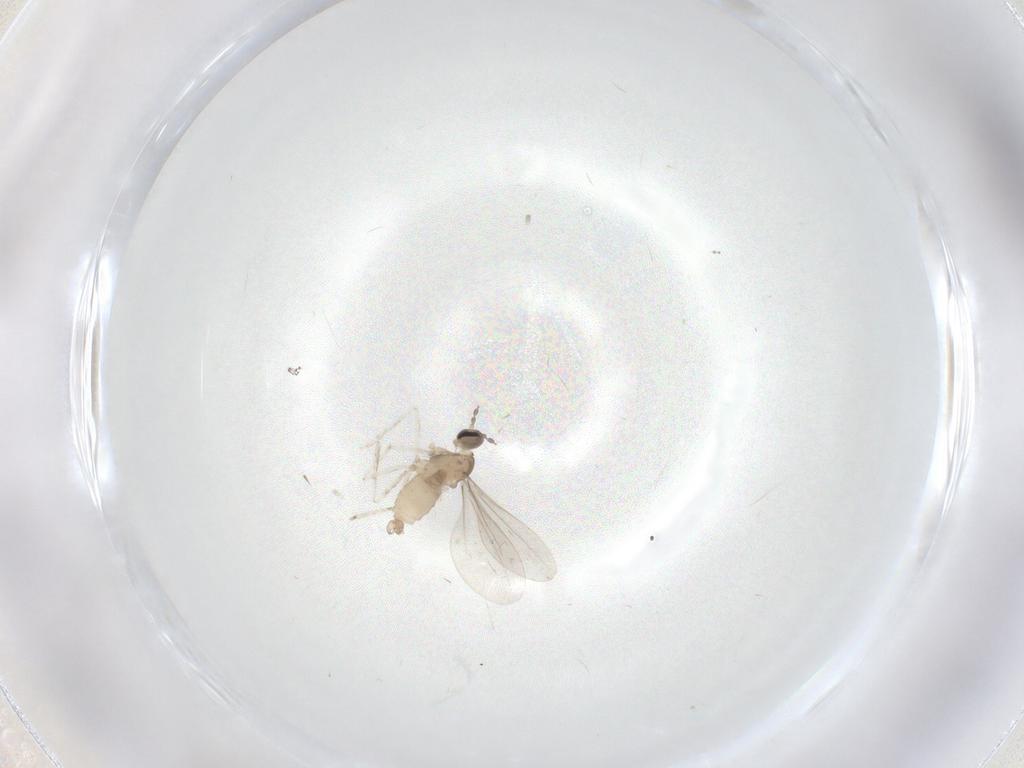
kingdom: Animalia
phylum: Arthropoda
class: Insecta
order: Diptera
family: Cecidomyiidae
